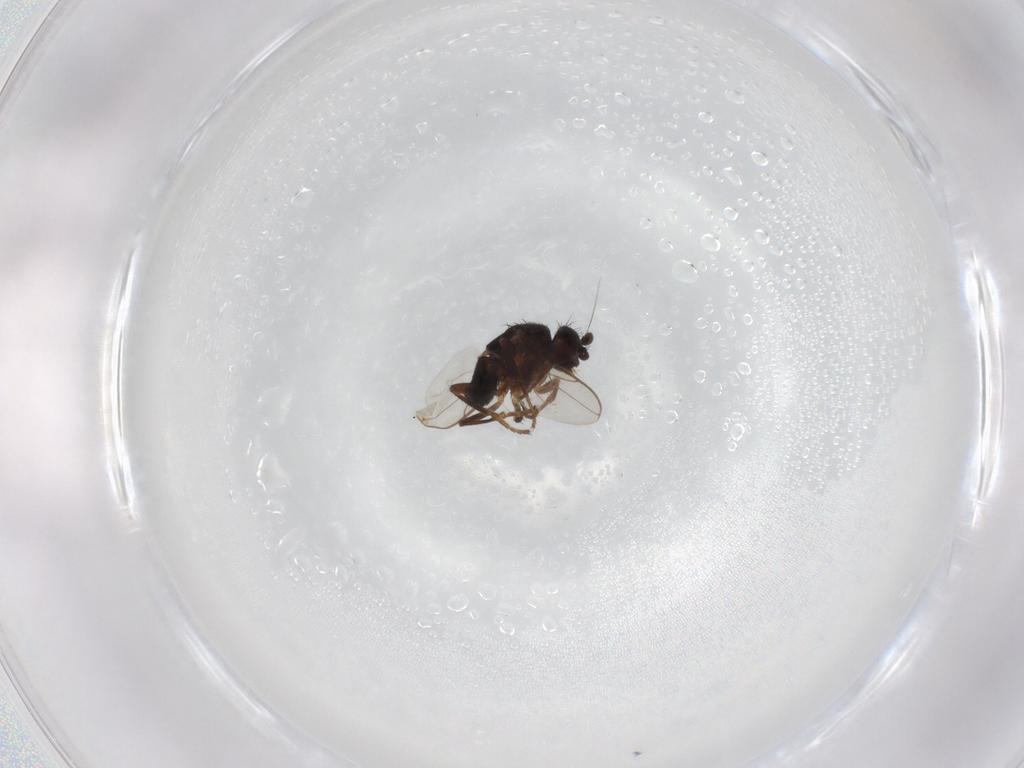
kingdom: Animalia
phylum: Arthropoda
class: Insecta
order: Diptera
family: Sphaeroceridae
